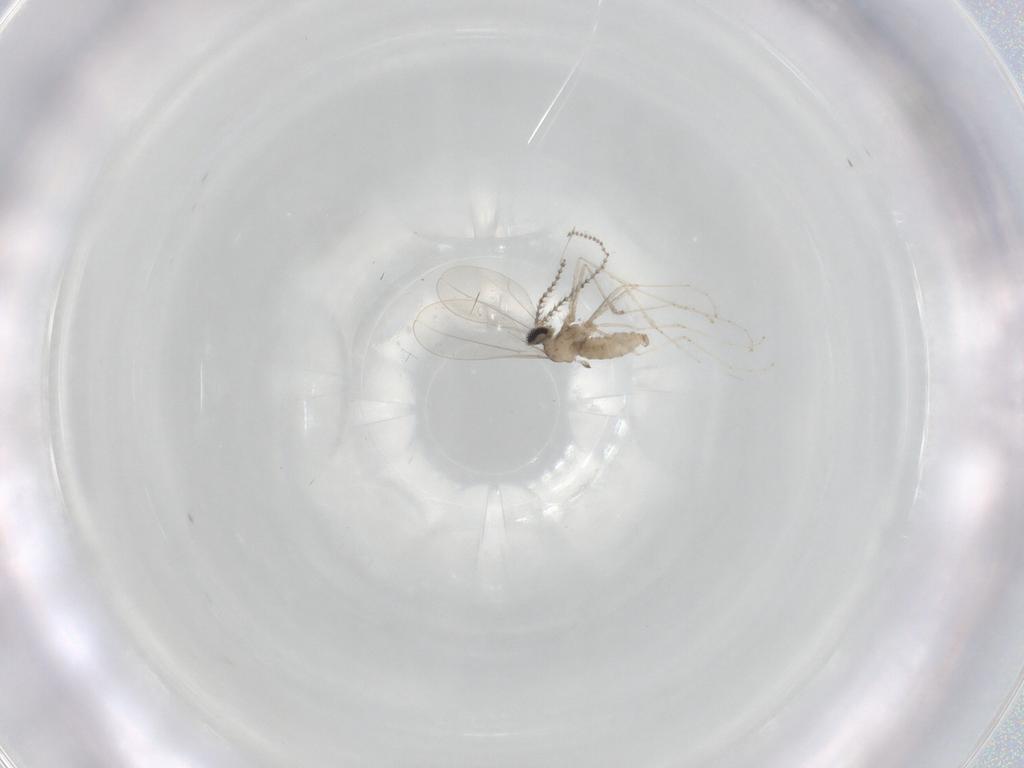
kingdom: Animalia
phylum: Arthropoda
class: Insecta
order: Diptera
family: Cecidomyiidae
